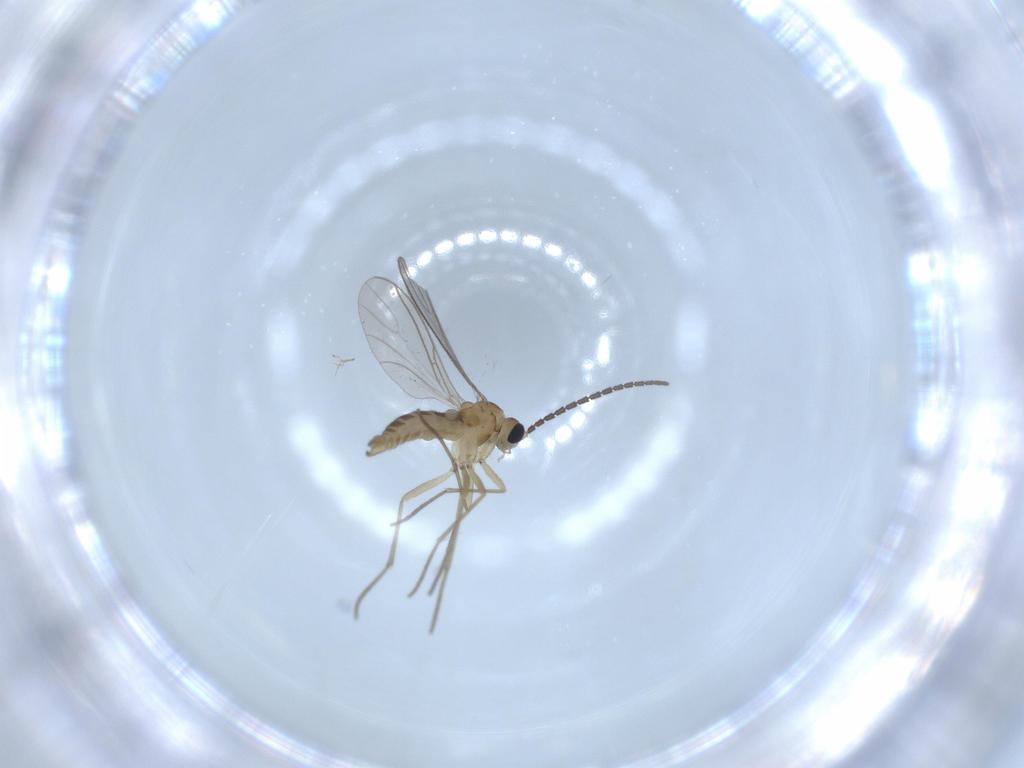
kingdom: Animalia
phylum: Arthropoda
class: Insecta
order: Diptera
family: Sciaridae
